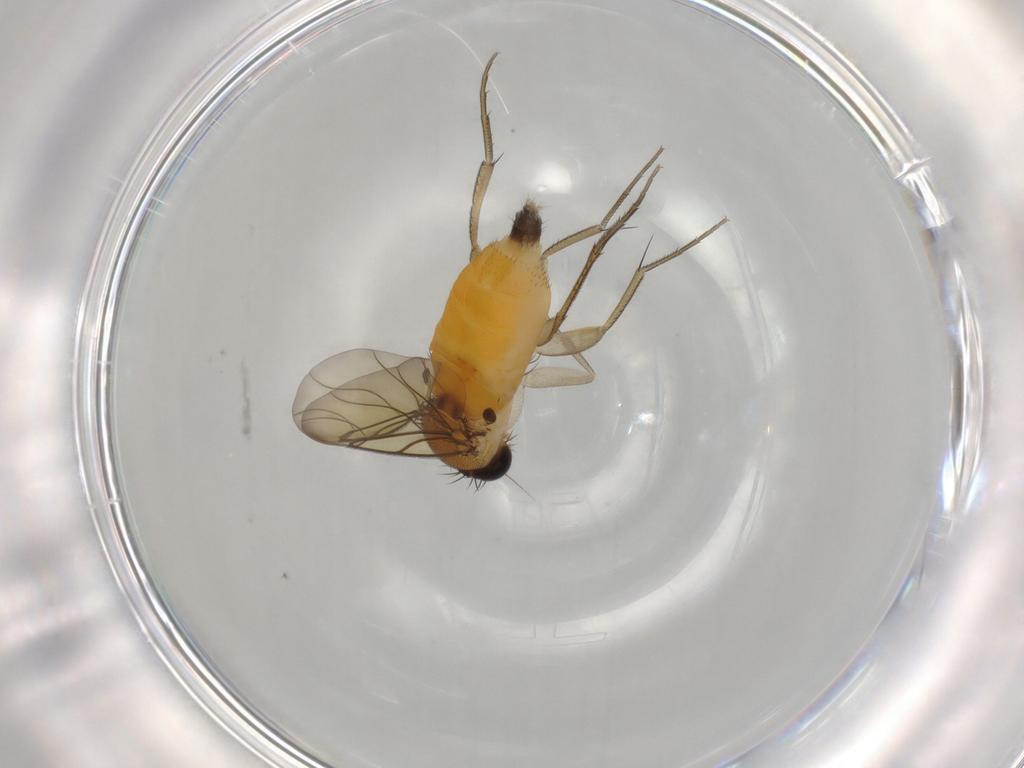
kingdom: Animalia
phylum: Arthropoda
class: Insecta
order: Diptera
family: Phoridae
